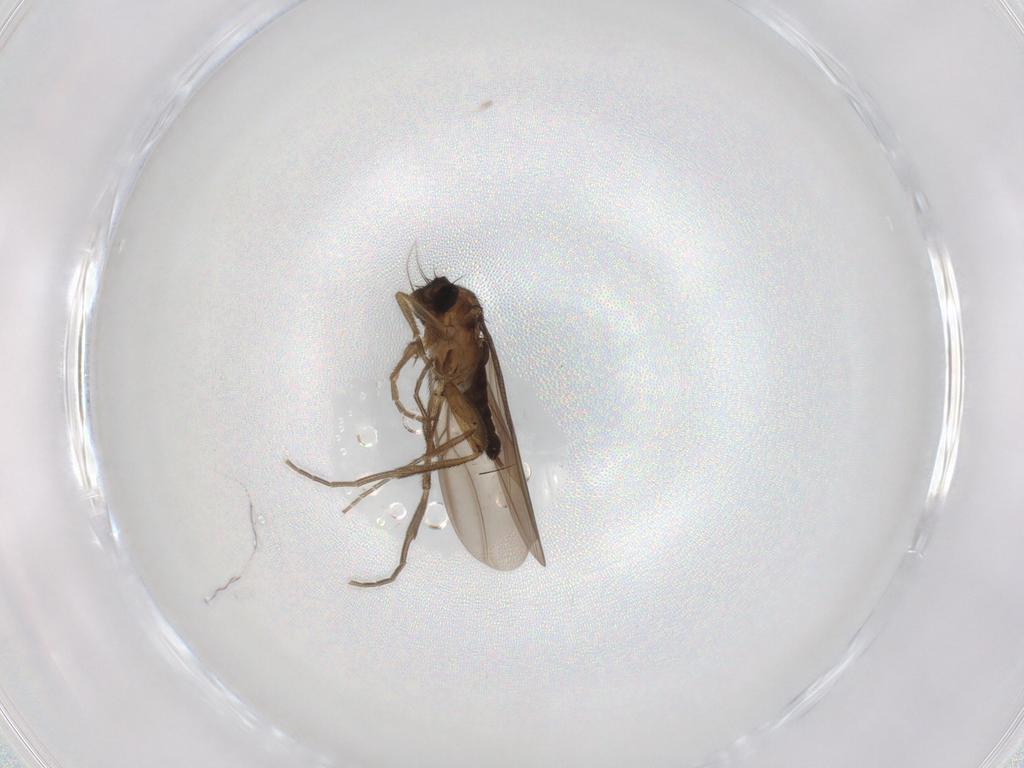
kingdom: Animalia
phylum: Arthropoda
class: Insecta
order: Diptera
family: Phoridae
